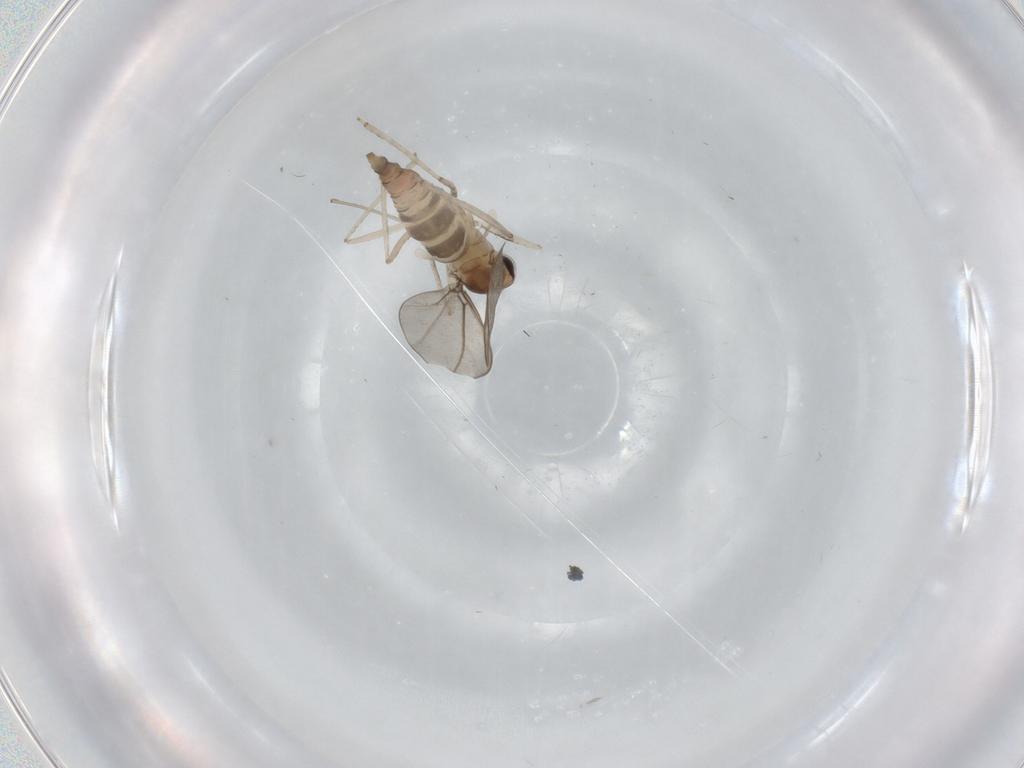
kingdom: Animalia
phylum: Arthropoda
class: Insecta
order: Diptera
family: Cecidomyiidae
